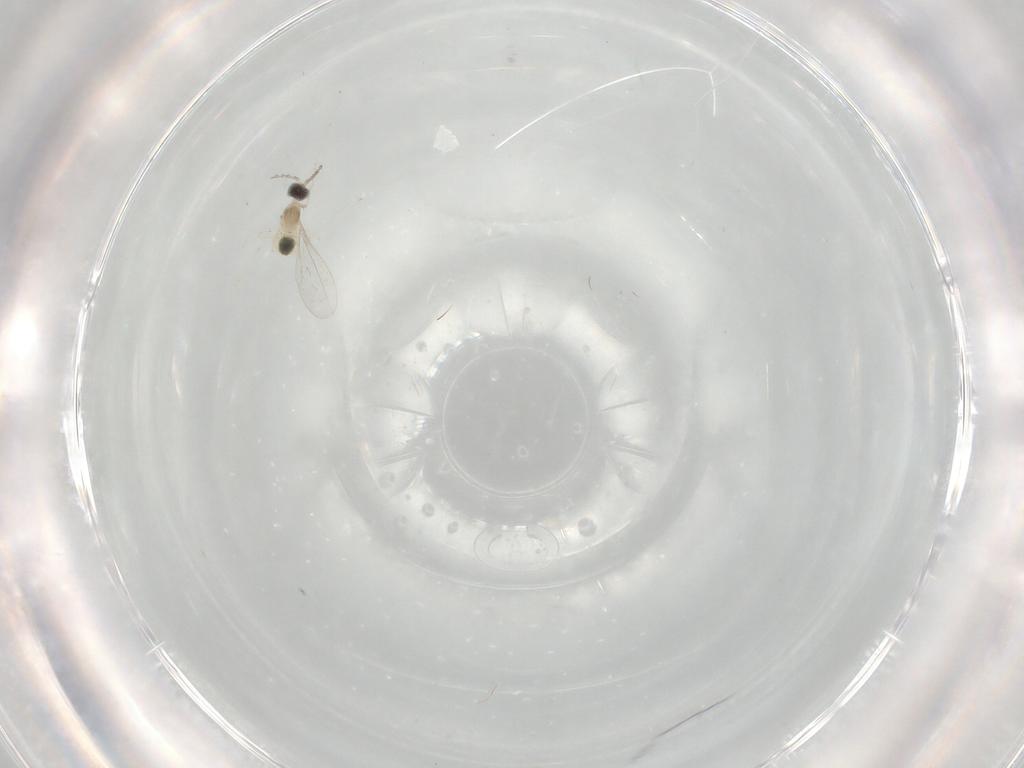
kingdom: Animalia
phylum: Arthropoda
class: Insecta
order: Diptera
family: Cecidomyiidae
